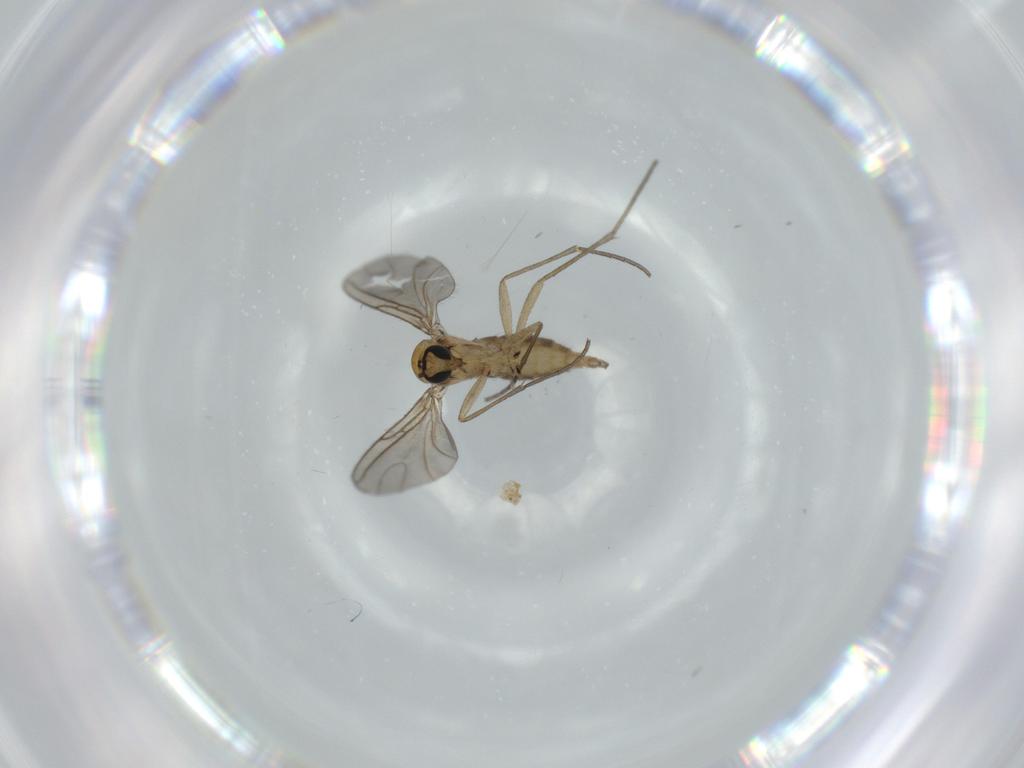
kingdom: Animalia
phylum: Arthropoda
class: Insecta
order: Diptera
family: Sciaridae
